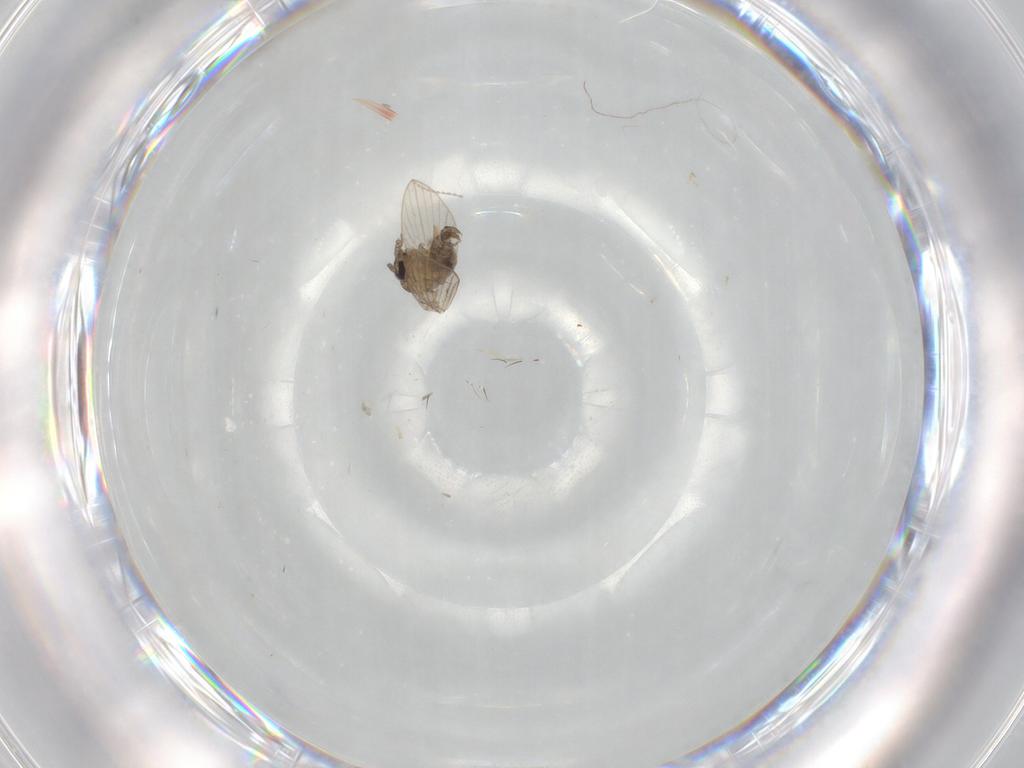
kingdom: Animalia
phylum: Arthropoda
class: Insecta
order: Diptera
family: Psychodidae
